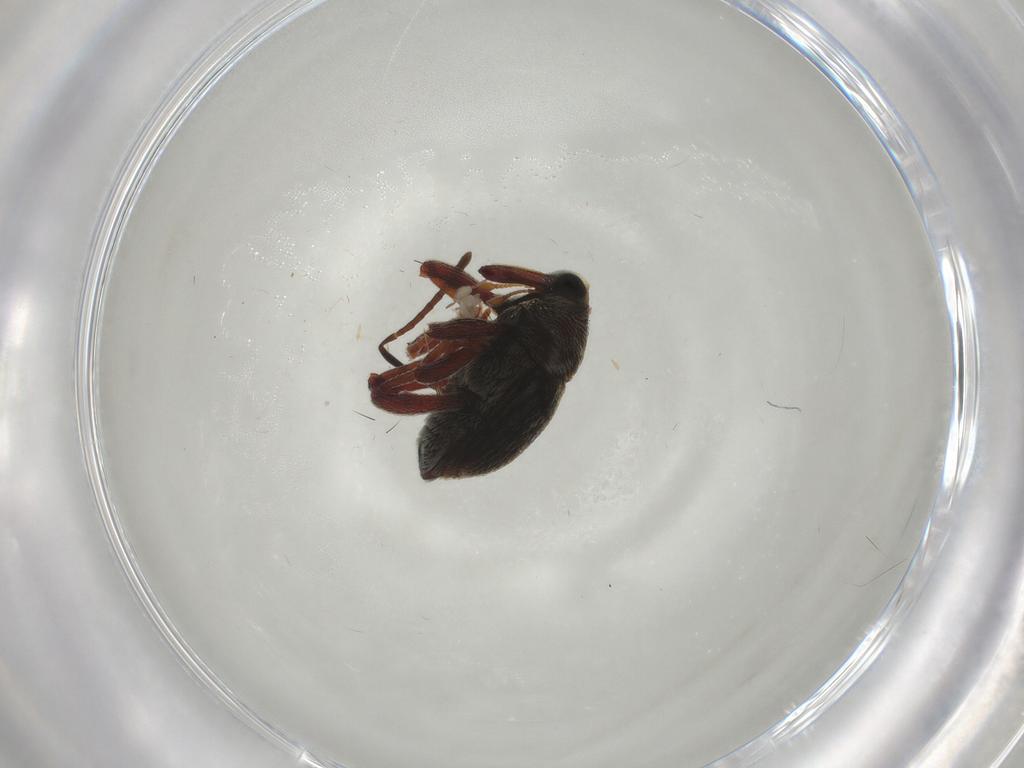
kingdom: Animalia
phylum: Arthropoda
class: Insecta
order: Coleoptera
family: Curculionidae
